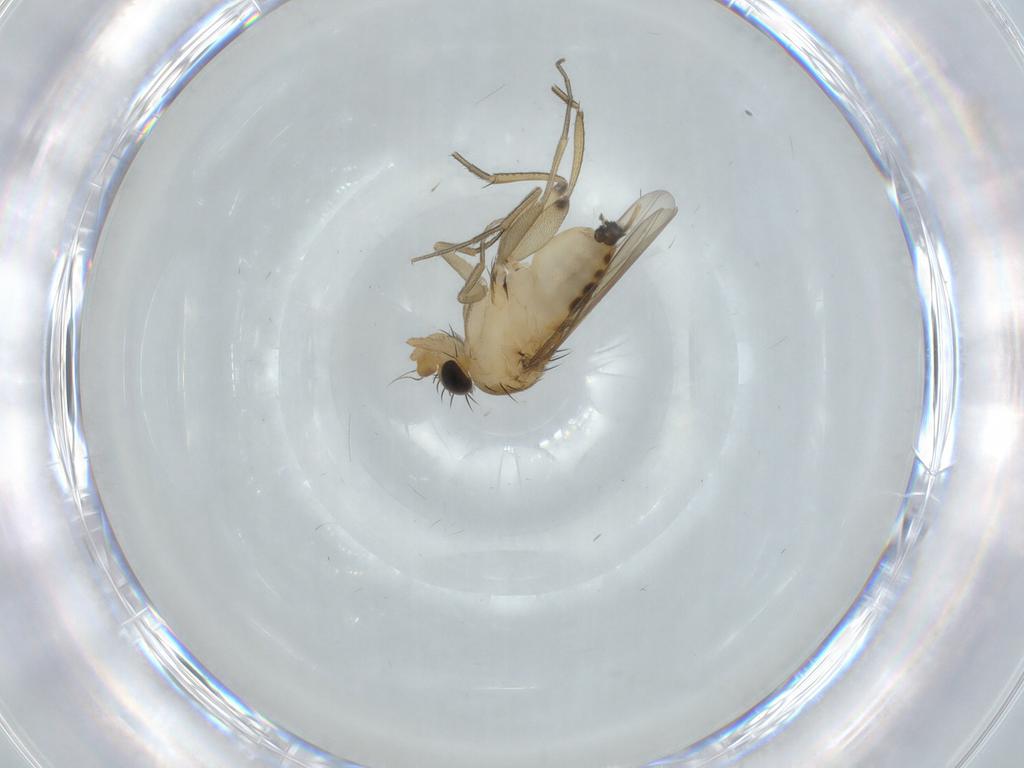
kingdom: Animalia
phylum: Arthropoda
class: Insecta
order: Diptera
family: Phoridae
